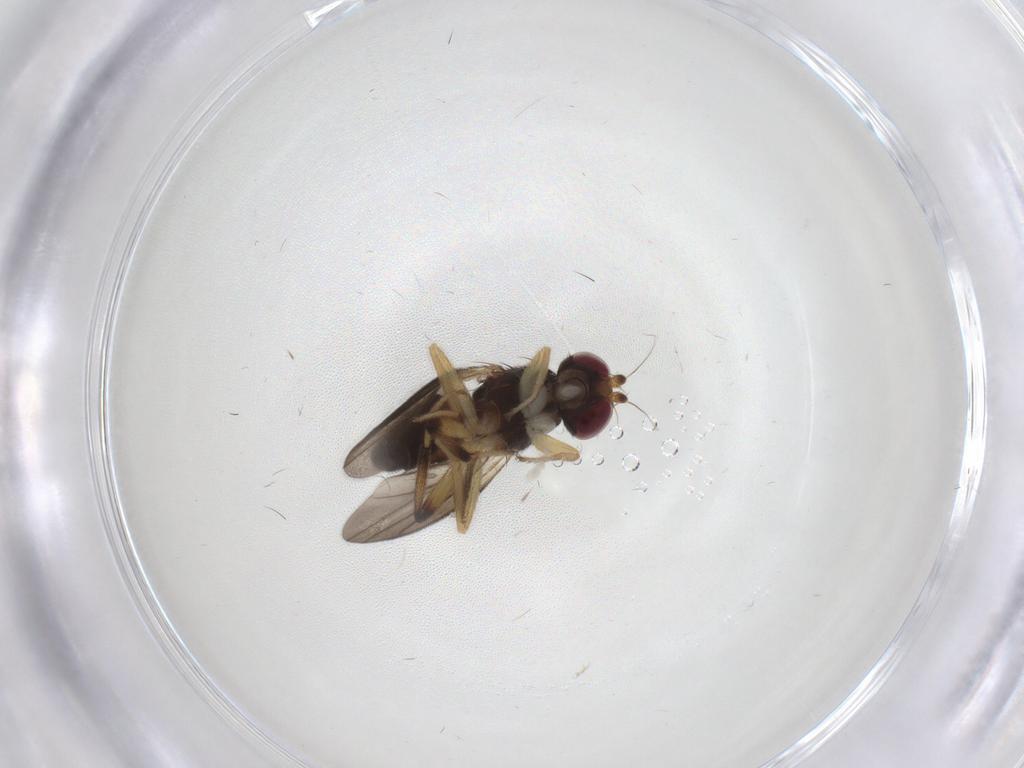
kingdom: Animalia
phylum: Arthropoda
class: Insecta
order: Diptera
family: Clusiidae
